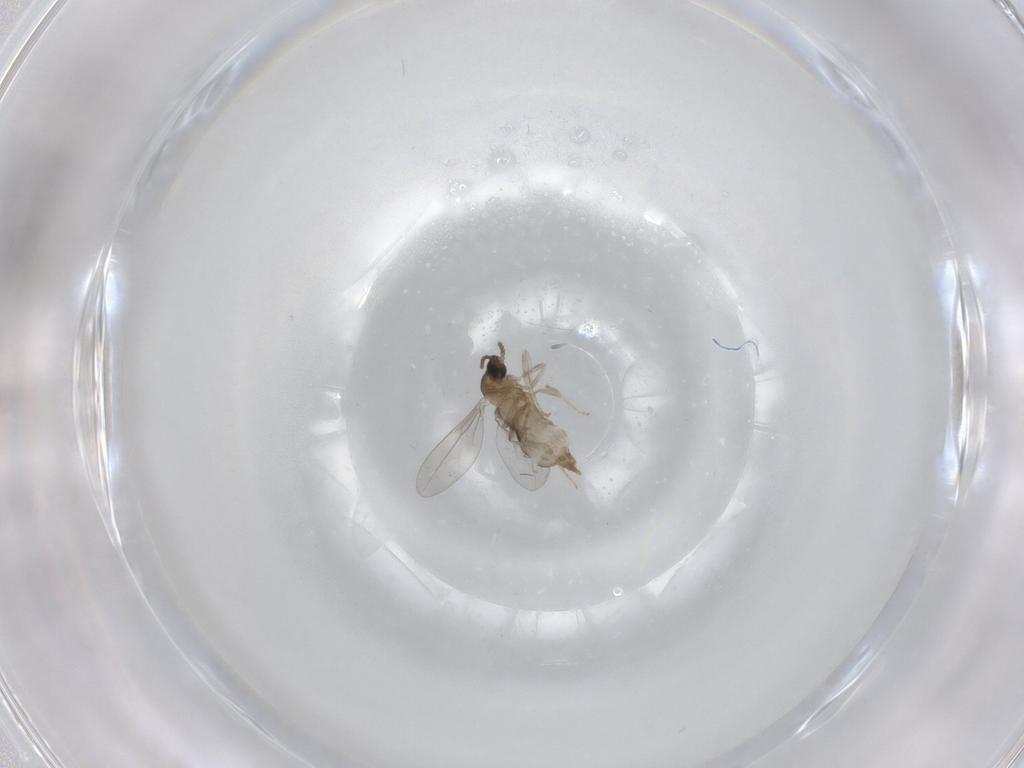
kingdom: Animalia
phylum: Arthropoda
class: Insecta
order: Diptera
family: Cecidomyiidae
